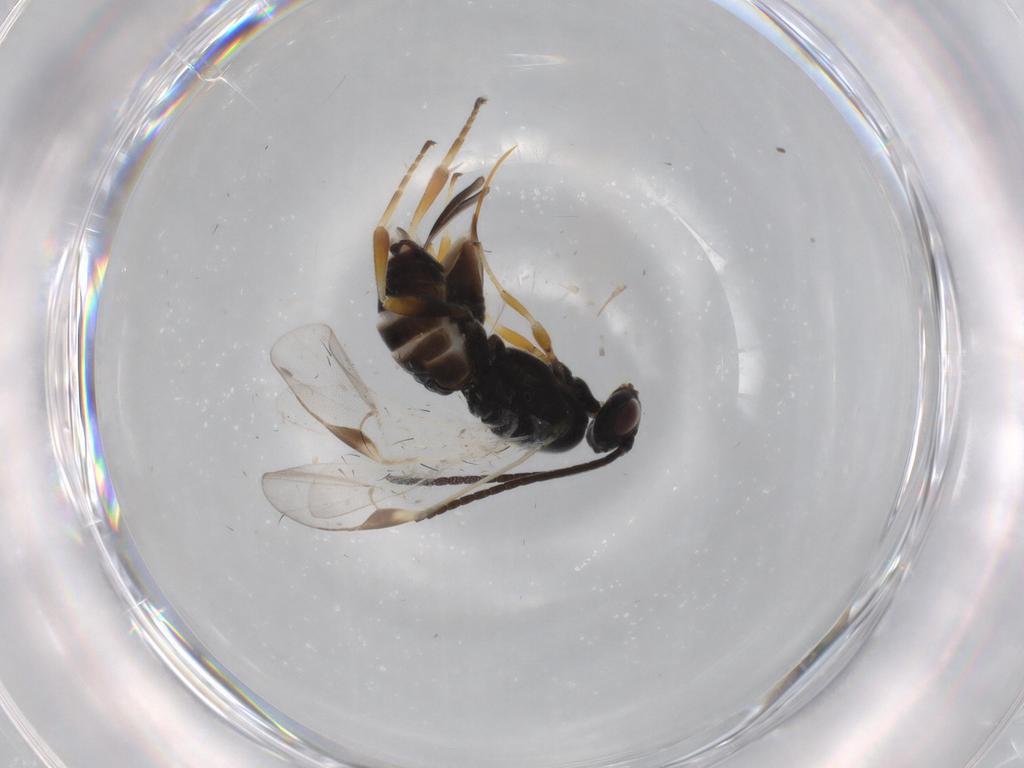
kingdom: Animalia
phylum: Arthropoda
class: Insecta
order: Hymenoptera
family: Braconidae
